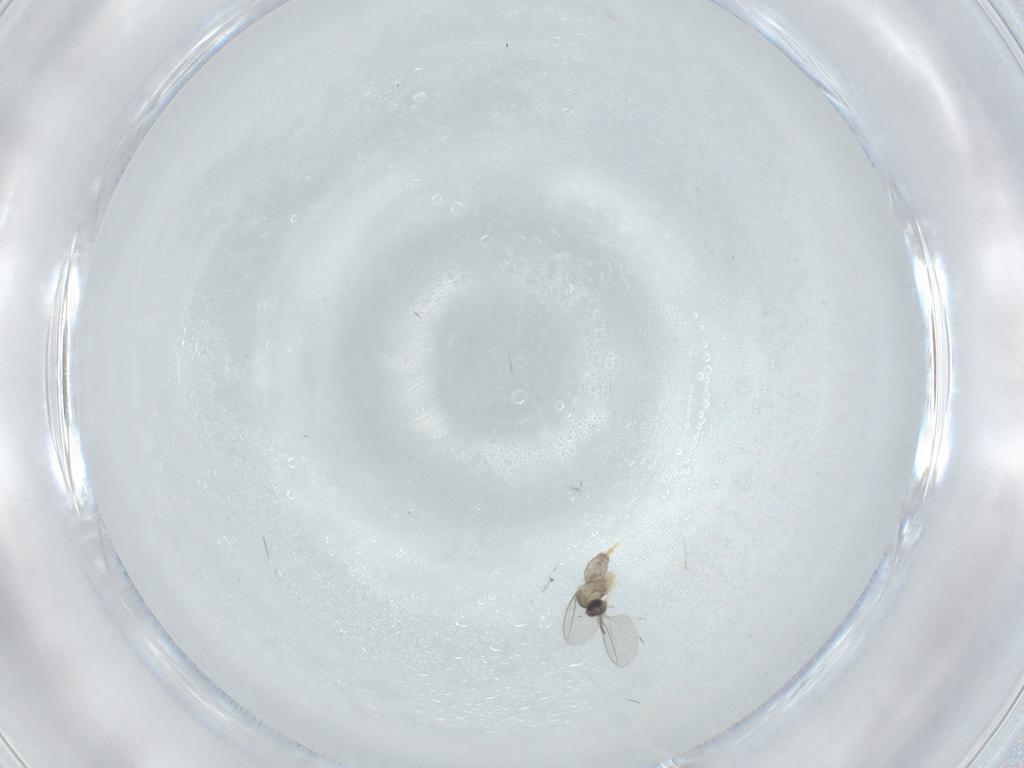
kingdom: Animalia
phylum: Arthropoda
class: Insecta
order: Diptera
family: Cecidomyiidae
